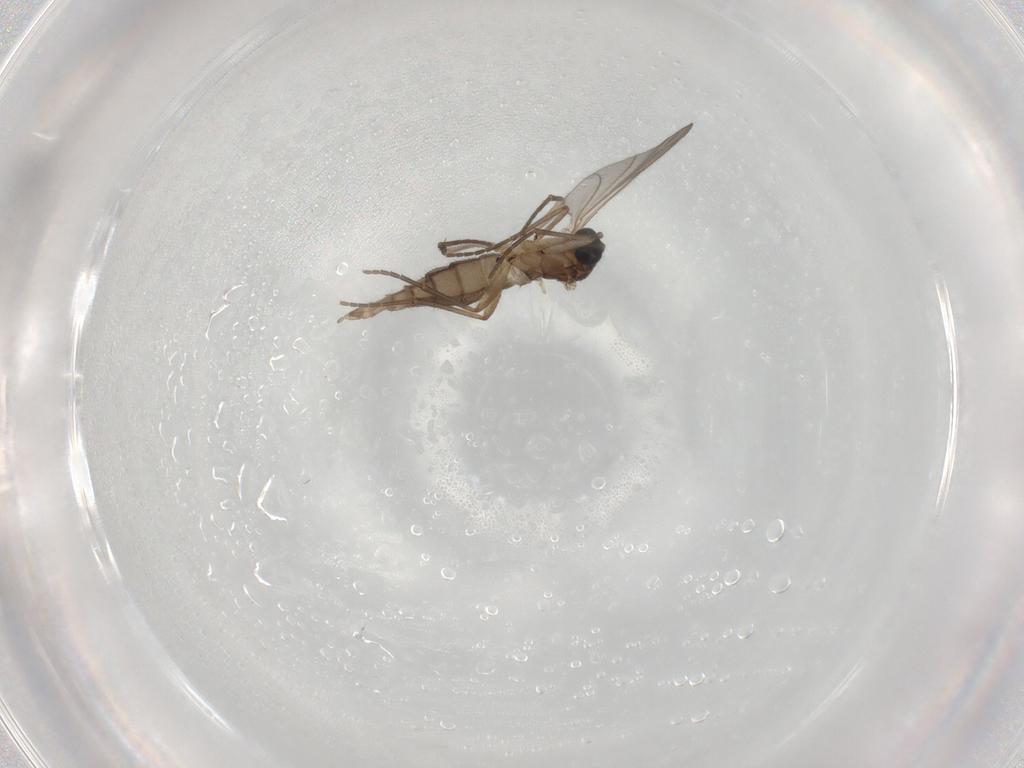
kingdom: Animalia
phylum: Arthropoda
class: Insecta
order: Diptera
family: Sciaridae
